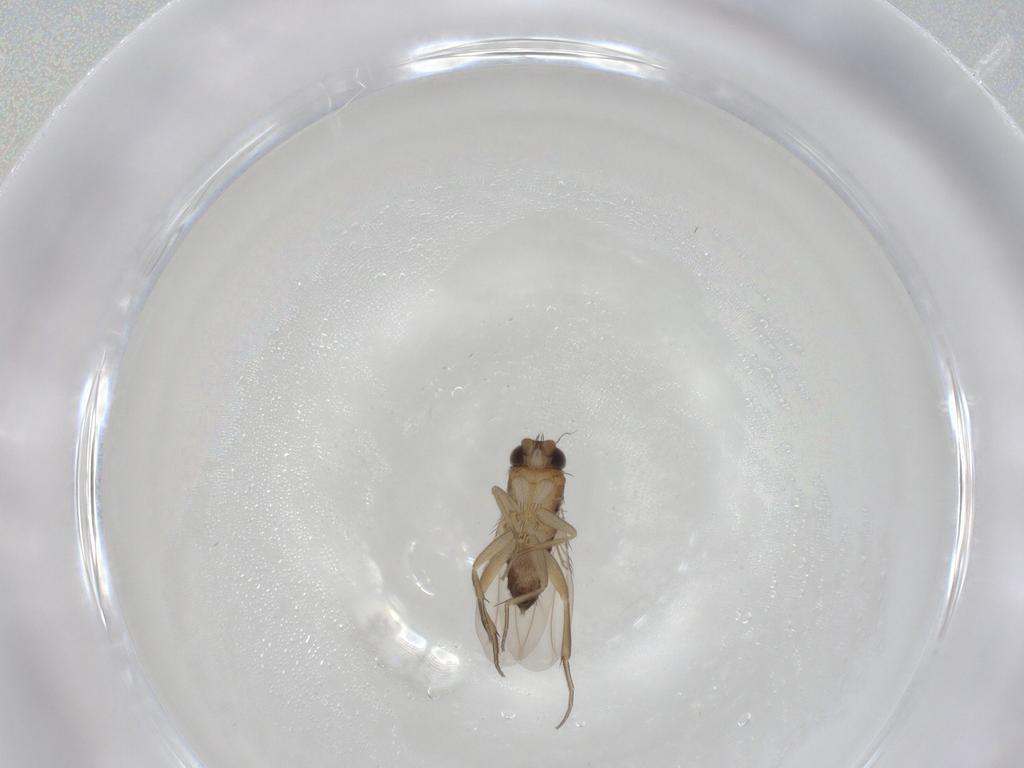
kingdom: Animalia
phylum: Arthropoda
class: Insecta
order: Diptera
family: Phoridae
